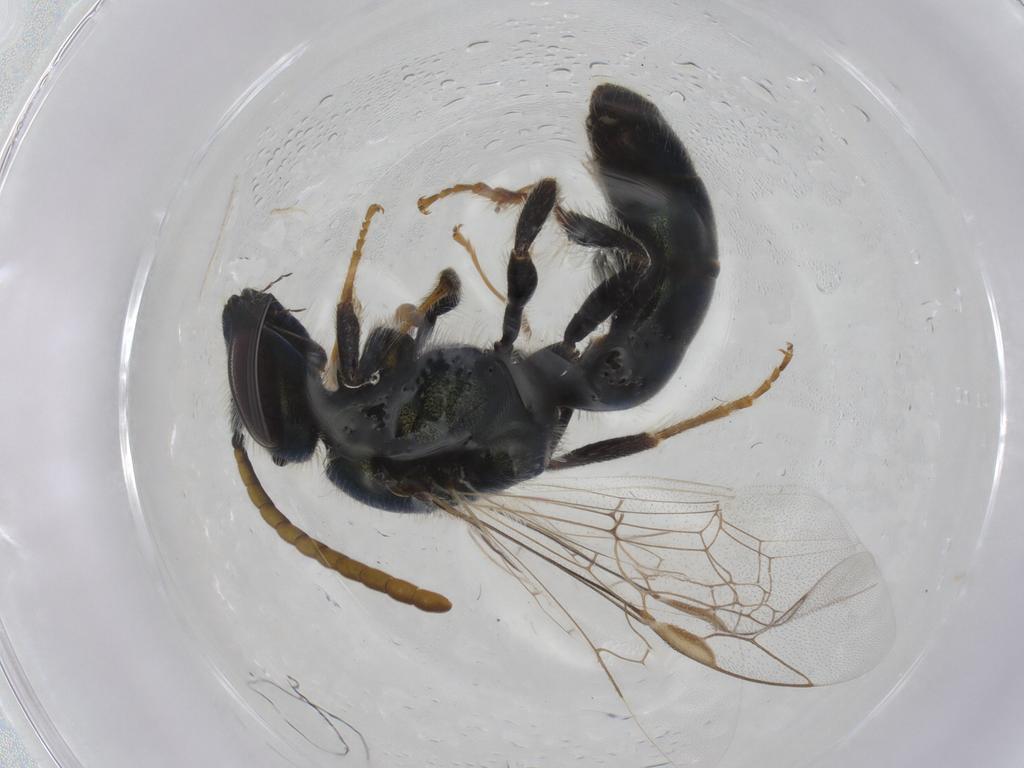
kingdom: Animalia
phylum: Arthropoda
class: Insecta
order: Hymenoptera
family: Halictidae
